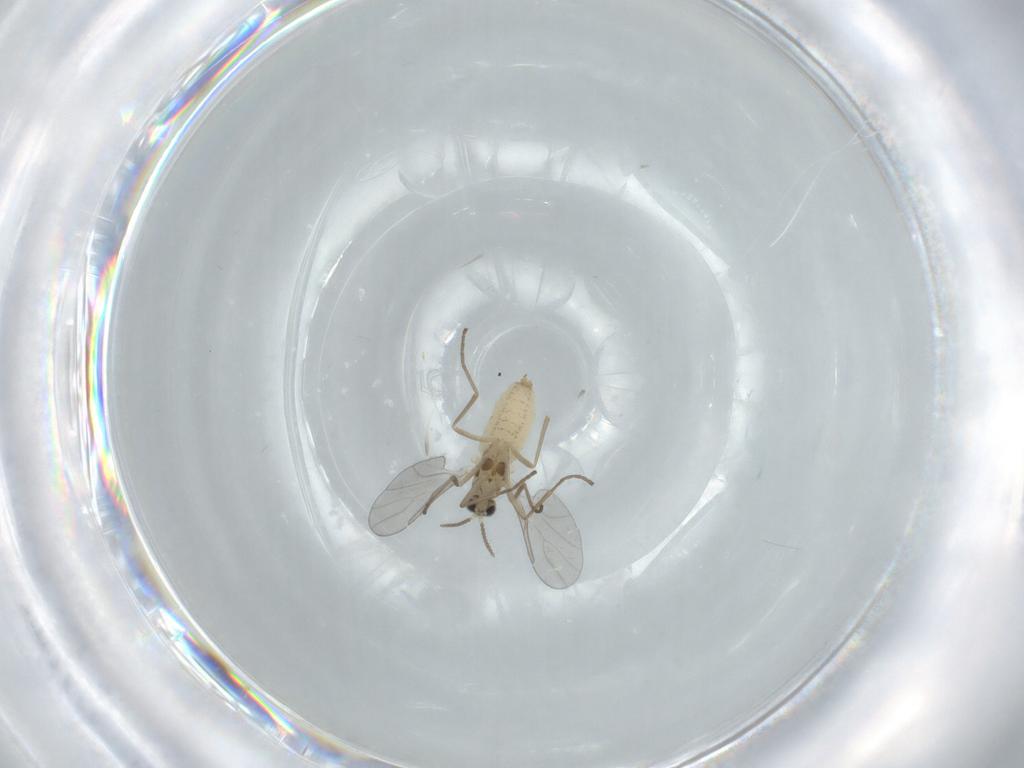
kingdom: Animalia
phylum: Arthropoda
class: Insecta
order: Diptera
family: Cecidomyiidae
